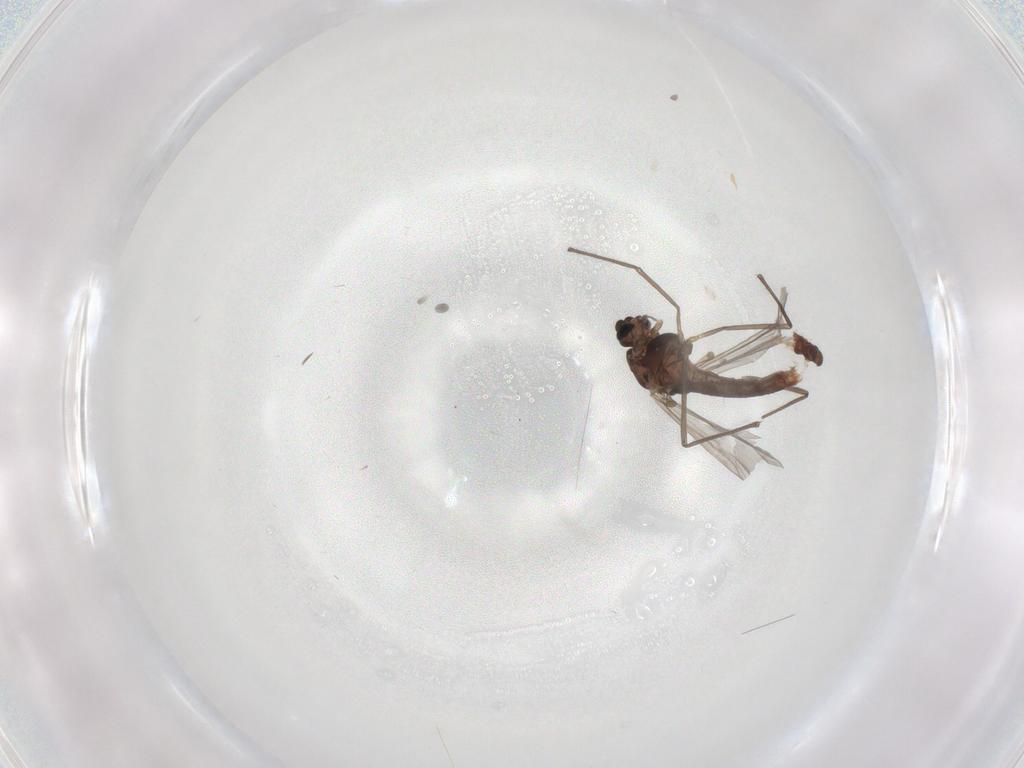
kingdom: Animalia
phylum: Arthropoda
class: Insecta
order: Diptera
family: Chironomidae
